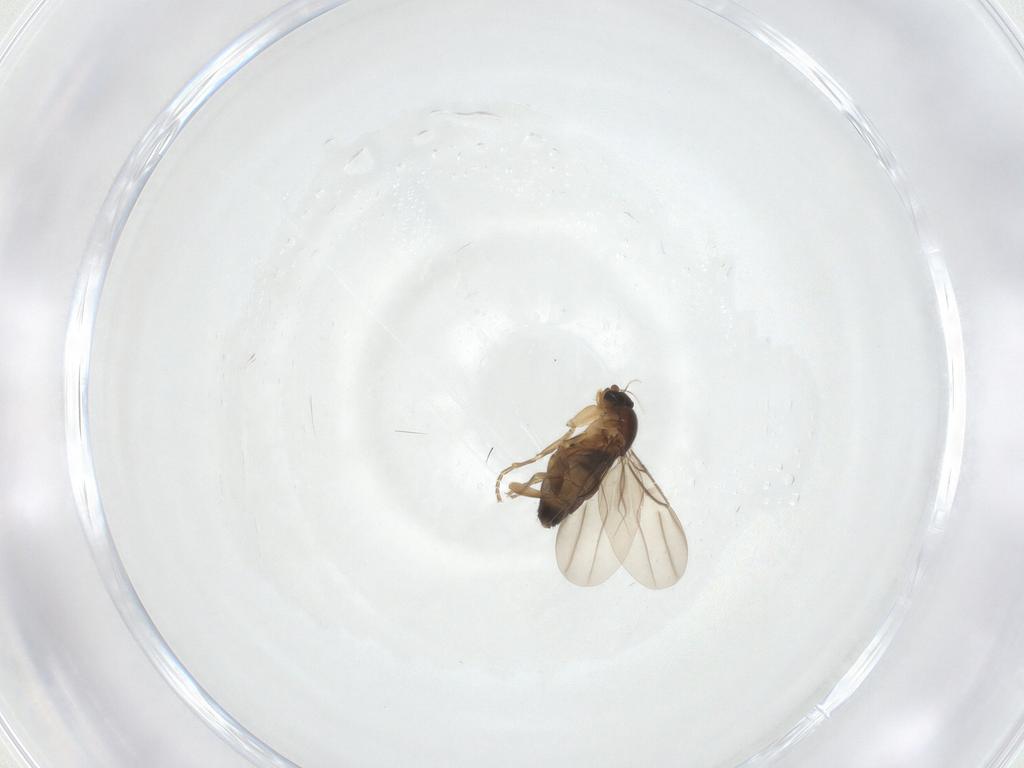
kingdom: Animalia
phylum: Arthropoda
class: Insecta
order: Diptera
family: Phoridae
